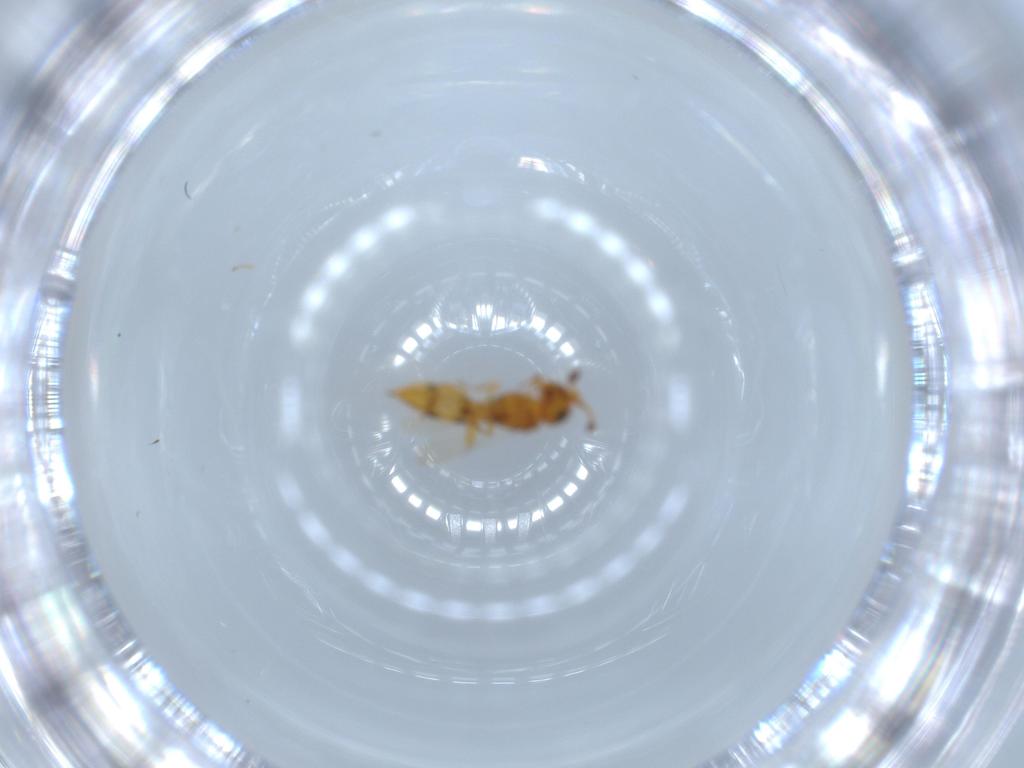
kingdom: Animalia
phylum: Arthropoda
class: Insecta
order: Hymenoptera
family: Scelionidae
